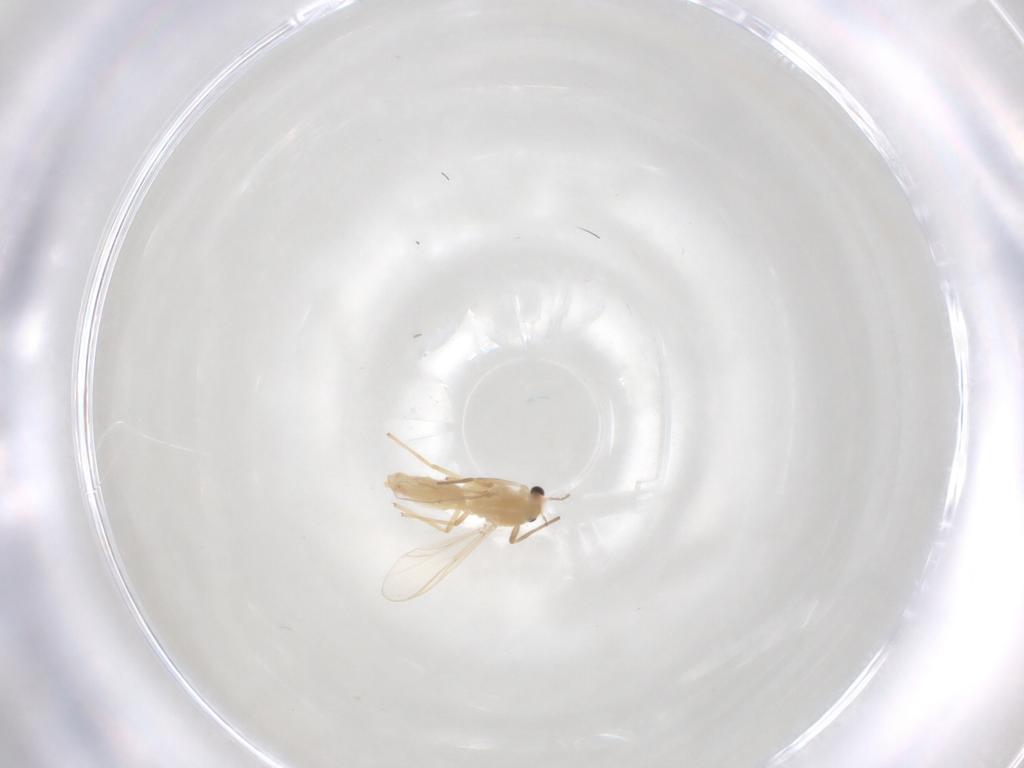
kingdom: Animalia
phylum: Arthropoda
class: Insecta
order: Diptera
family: Chironomidae
